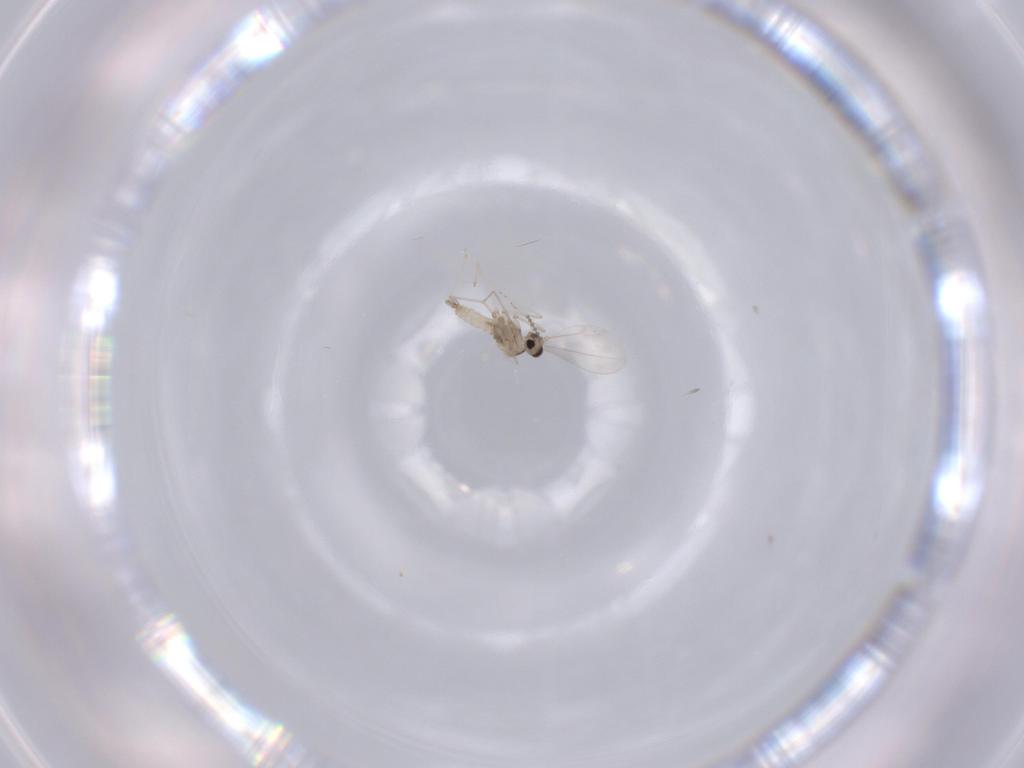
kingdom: Animalia
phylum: Arthropoda
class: Insecta
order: Diptera
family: Cecidomyiidae
